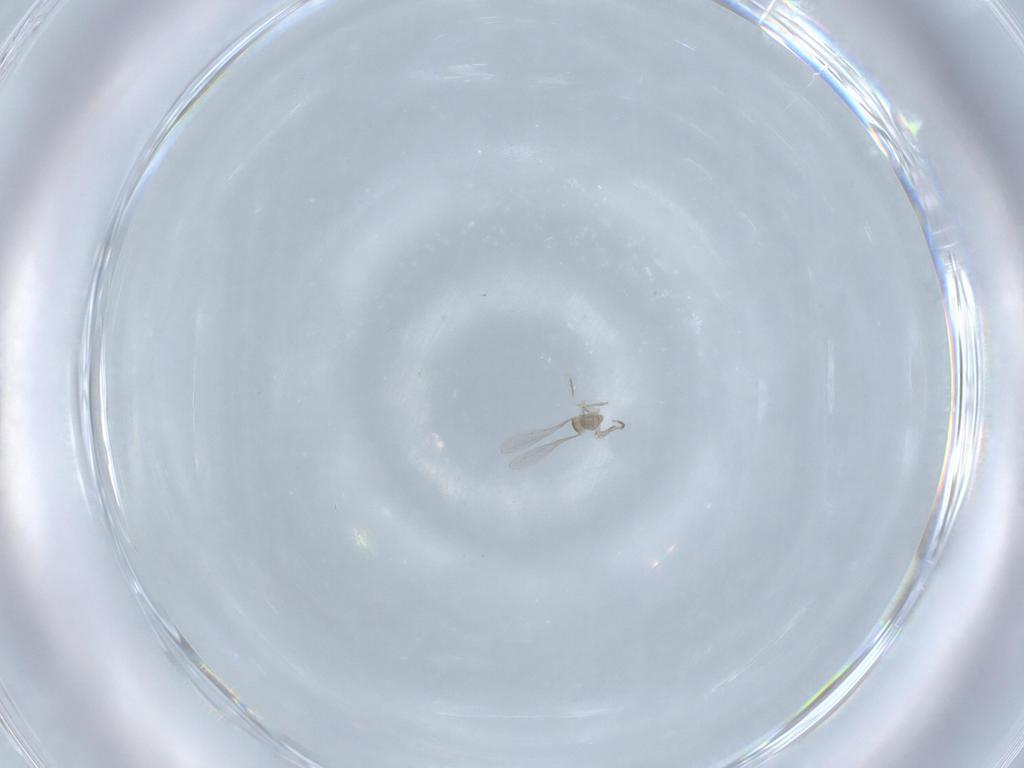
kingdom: Animalia
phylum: Arthropoda
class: Insecta
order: Diptera
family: Cecidomyiidae
